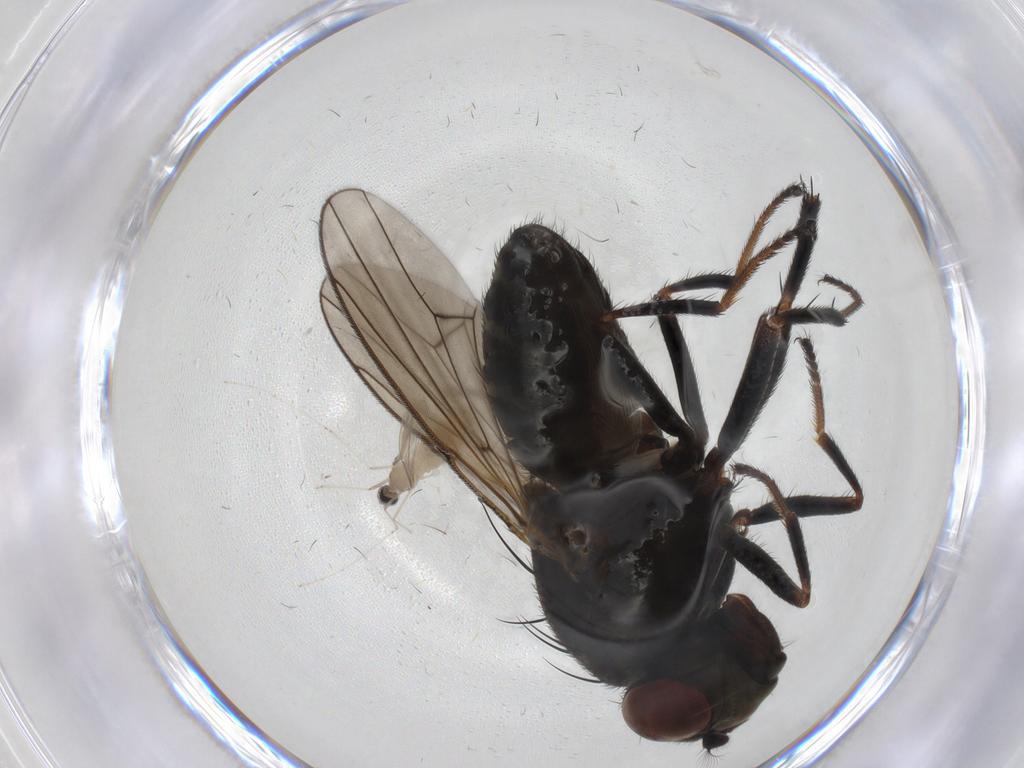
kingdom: Animalia
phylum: Arthropoda
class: Insecta
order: Diptera
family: Ephydridae
